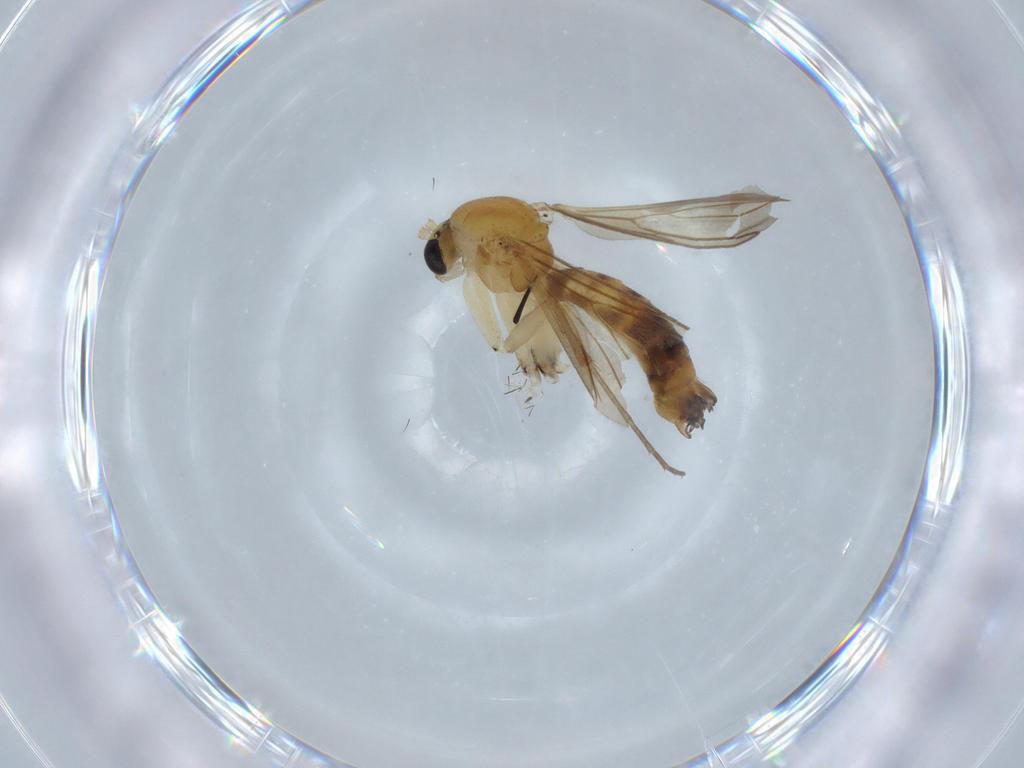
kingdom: Animalia
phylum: Arthropoda
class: Insecta
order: Diptera
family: Mycetophilidae
